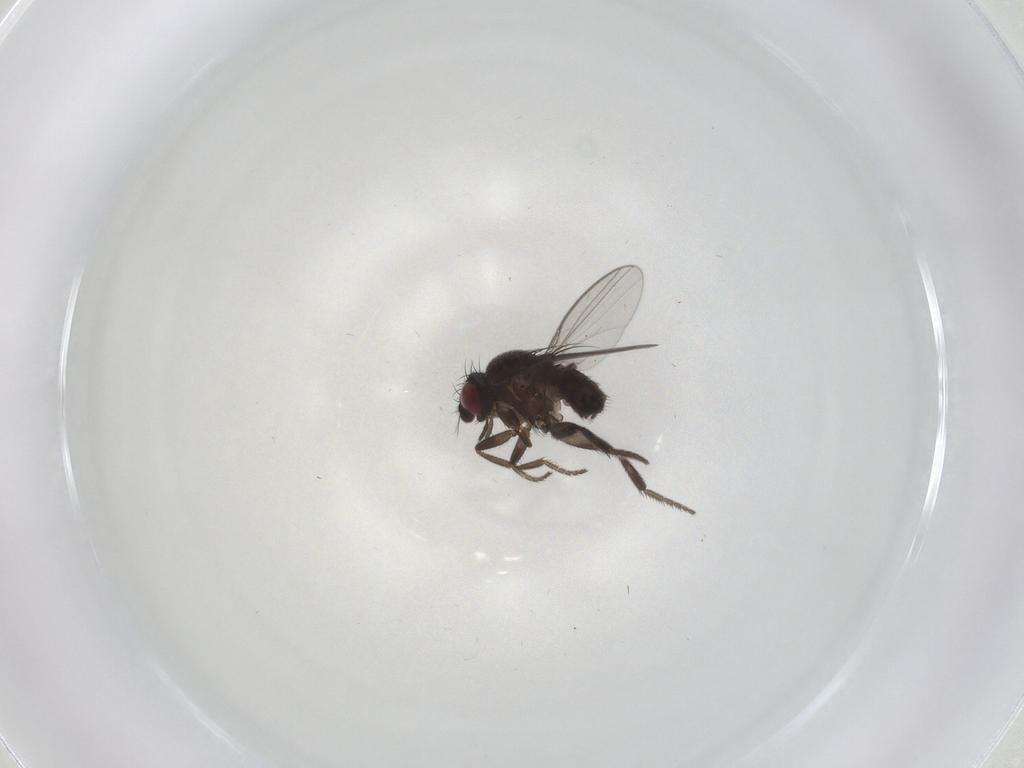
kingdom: Animalia
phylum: Arthropoda
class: Insecta
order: Diptera
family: Milichiidae
